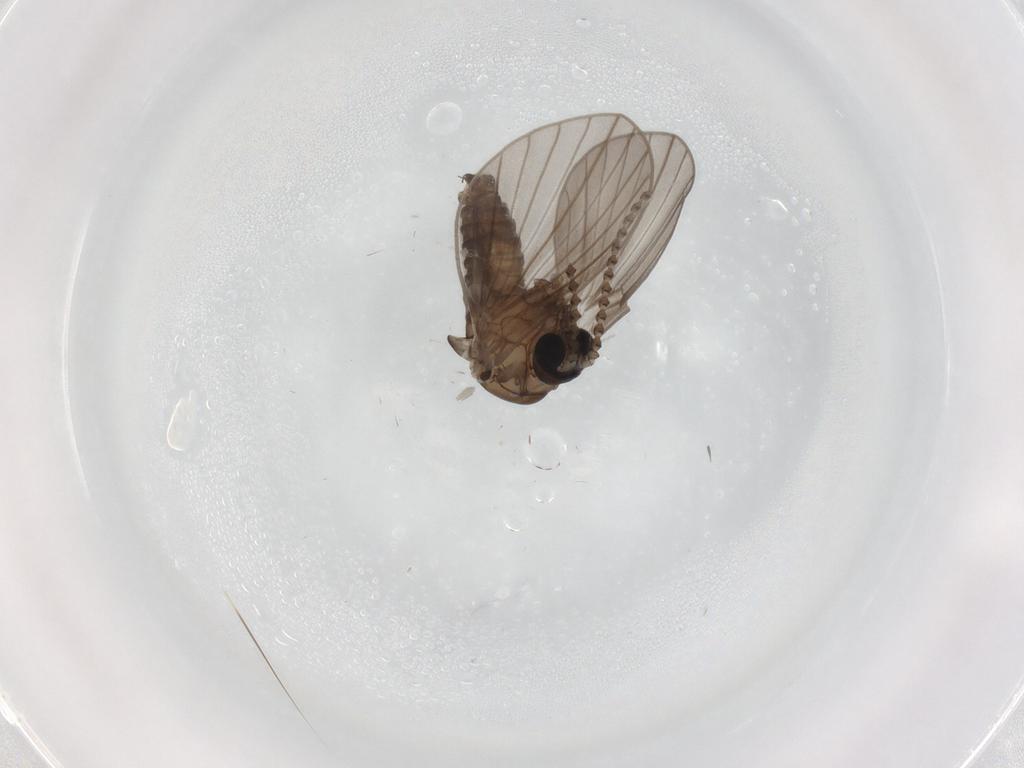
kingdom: Animalia
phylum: Arthropoda
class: Insecta
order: Diptera
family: Psychodidae
